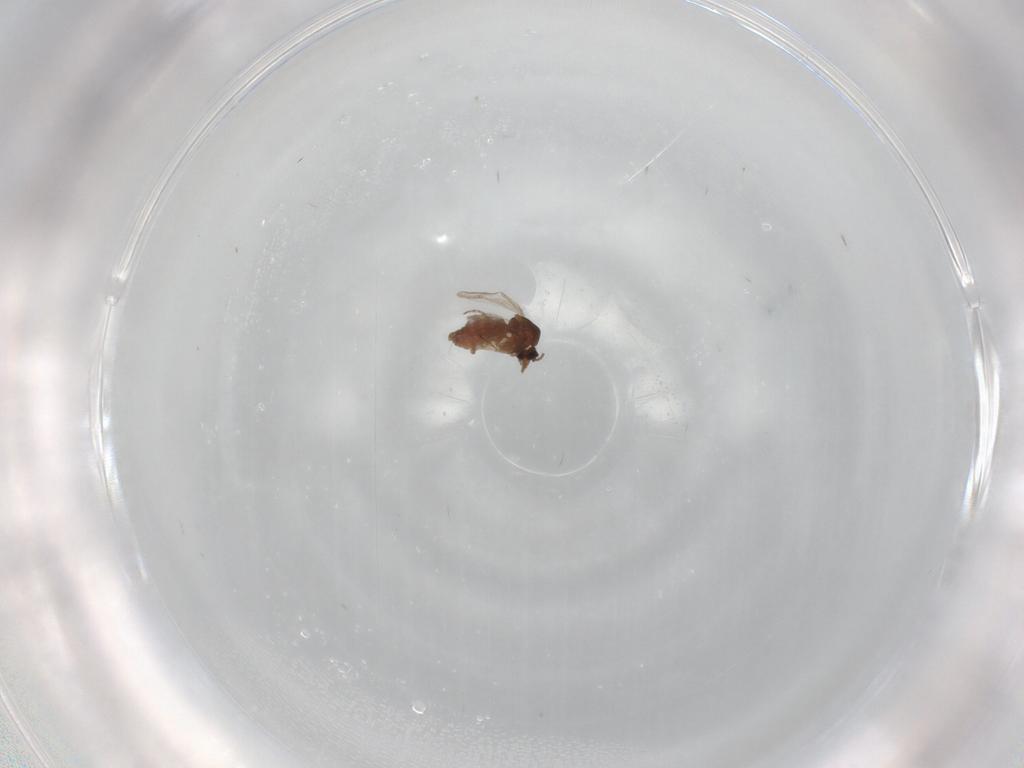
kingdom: Animalia
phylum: Arthropoda
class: Insecta
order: Diptera
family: Ceratopogonidae
